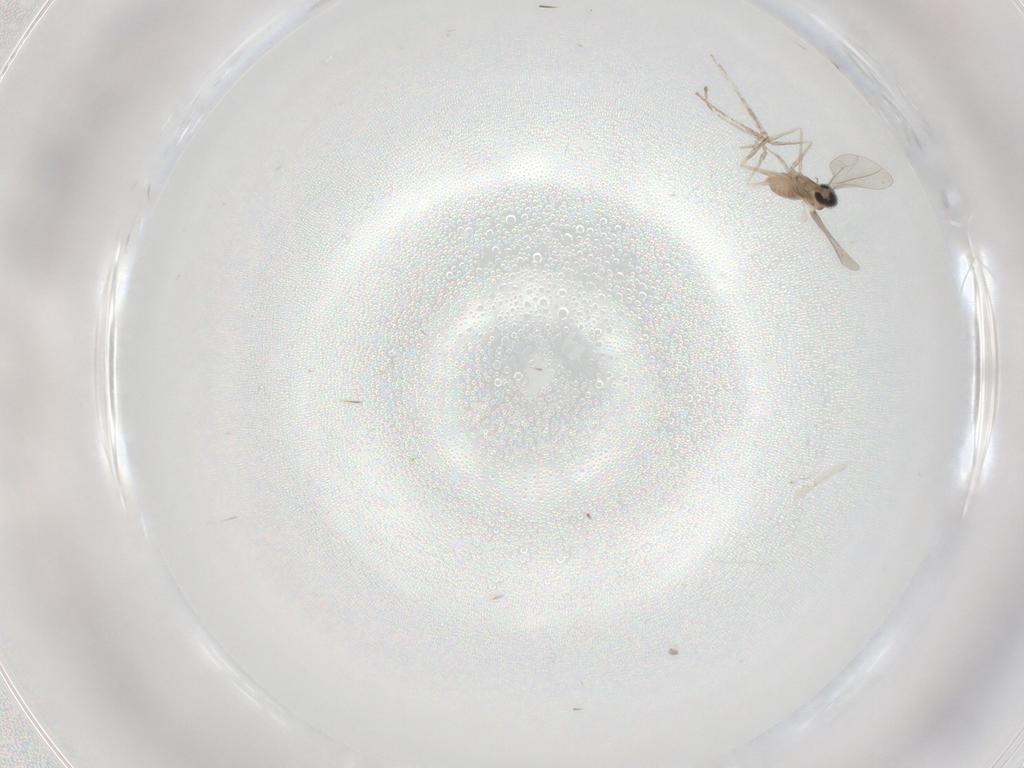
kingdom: Animalia
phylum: Arthropoda
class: Insecta
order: Diptera
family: Cecidomyiidae
